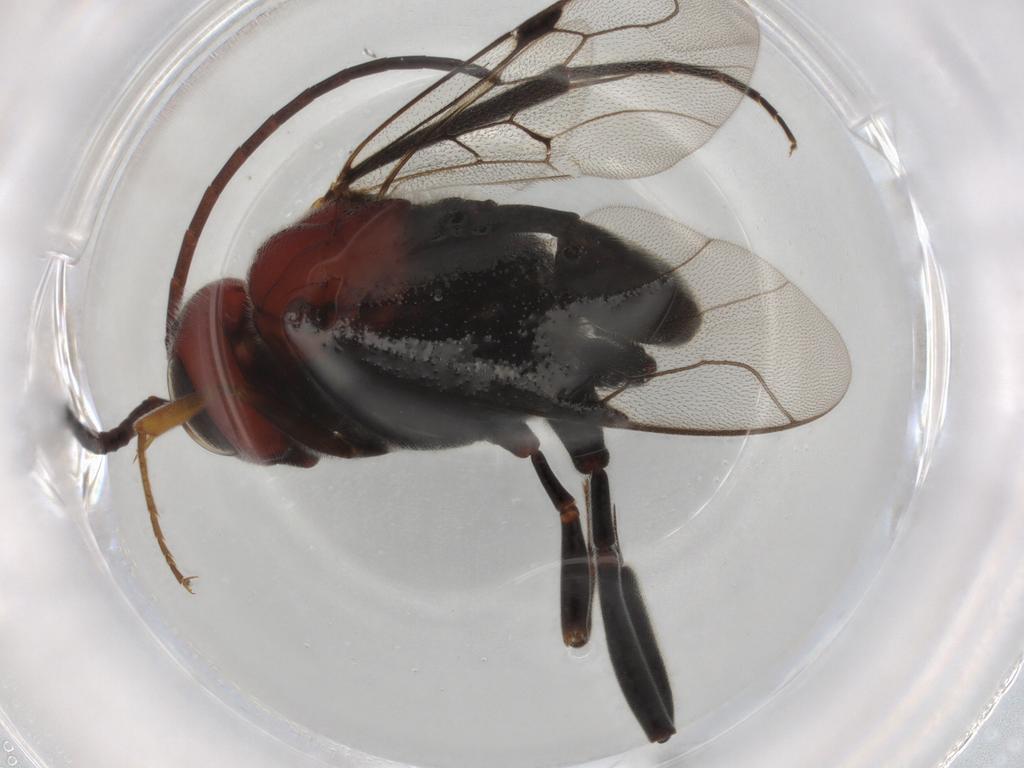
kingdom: Animalia
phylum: Arthropoda
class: Insecta
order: Hymenoptera
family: Evaniidae
